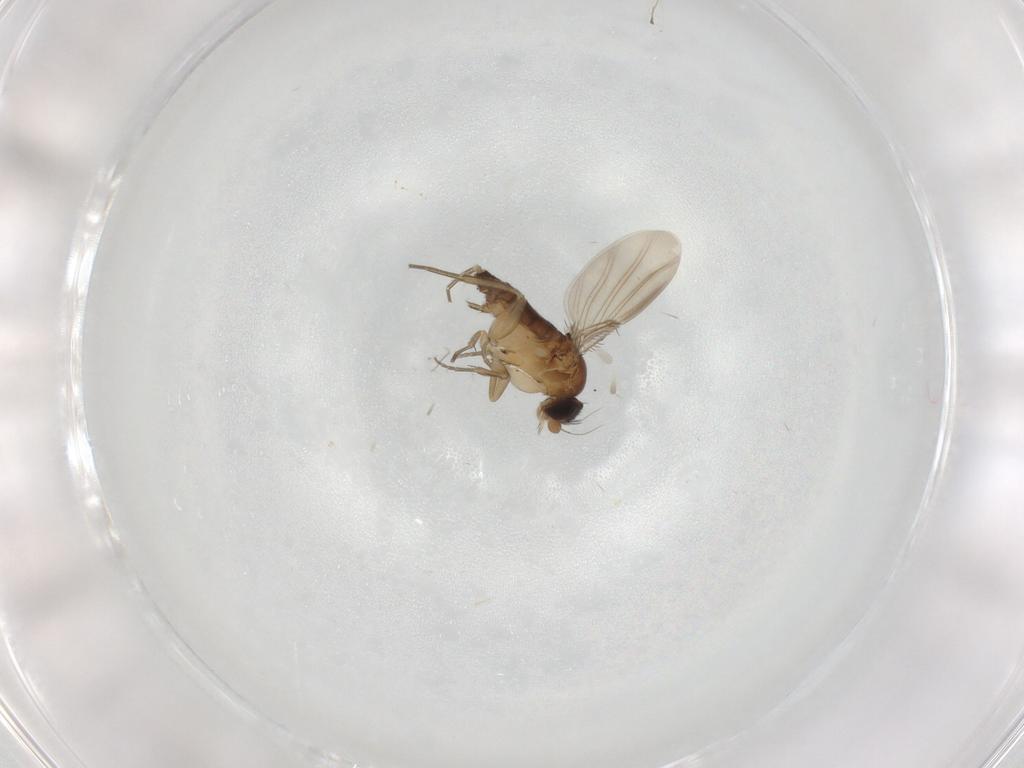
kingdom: Animalia
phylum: Arthropoda
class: Insecta
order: Diptera
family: Phoridae
